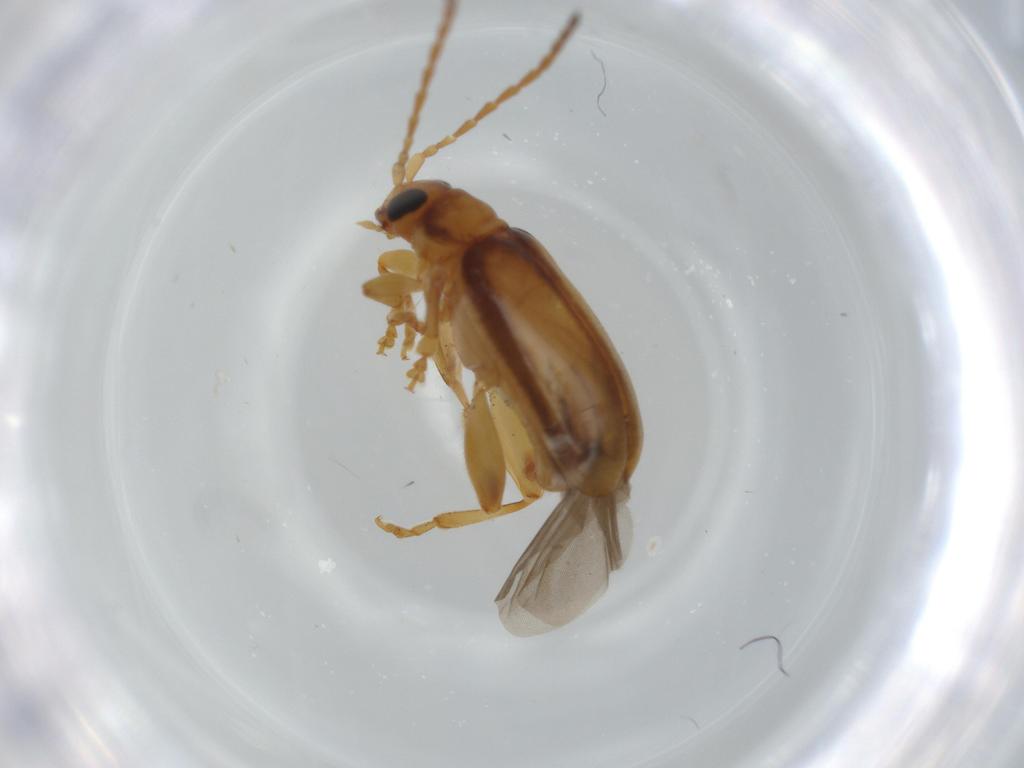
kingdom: Animalia
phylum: Arthropoda
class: Insecta
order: Coleoptera
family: Chrysomelidae
